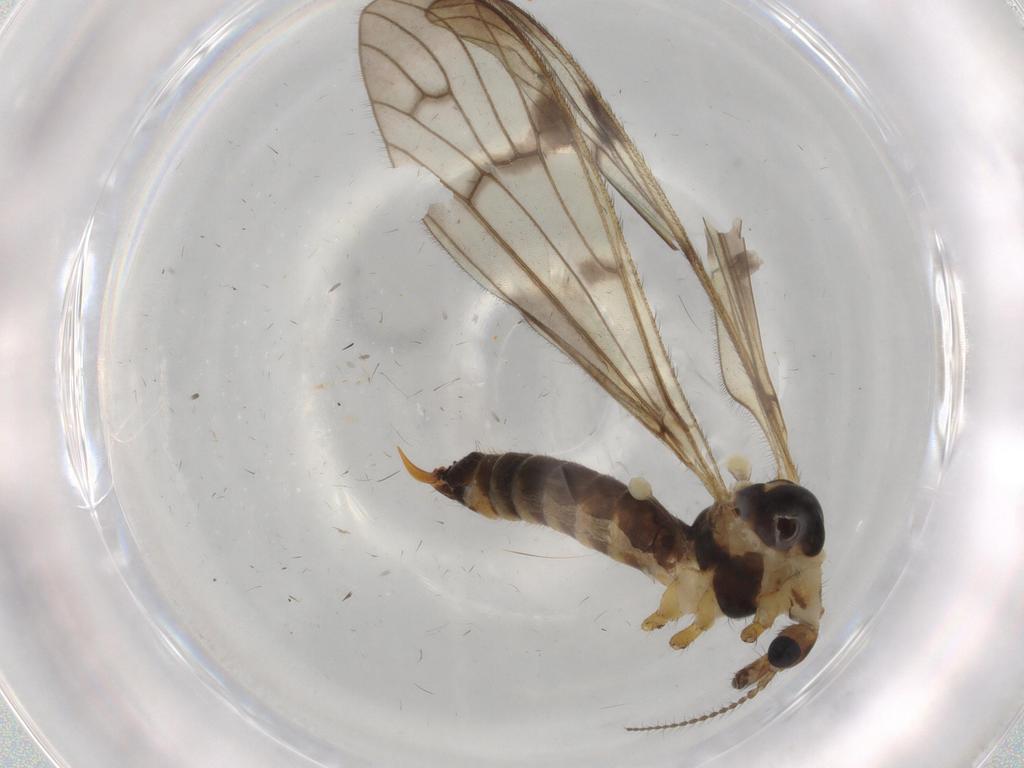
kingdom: Animalia
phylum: Arthropoda
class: Insecta
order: Diptera
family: Limoniidae
